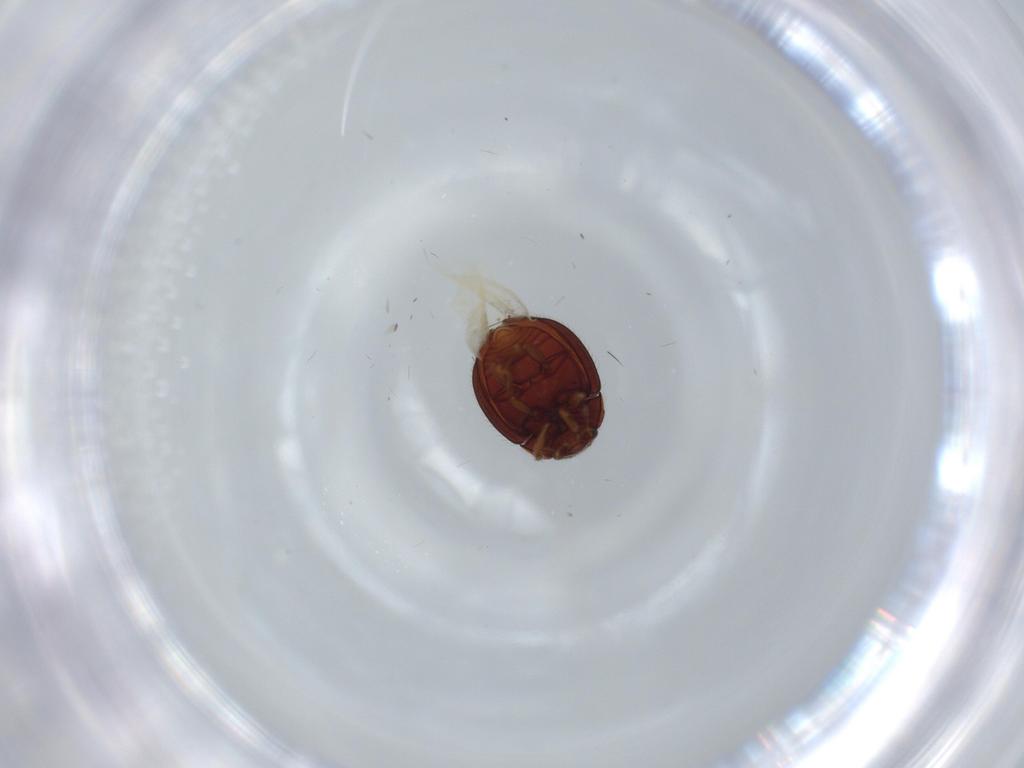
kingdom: Animalia
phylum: Arthropoda
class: Insecta
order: Coleoptera
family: Anamorphidae
